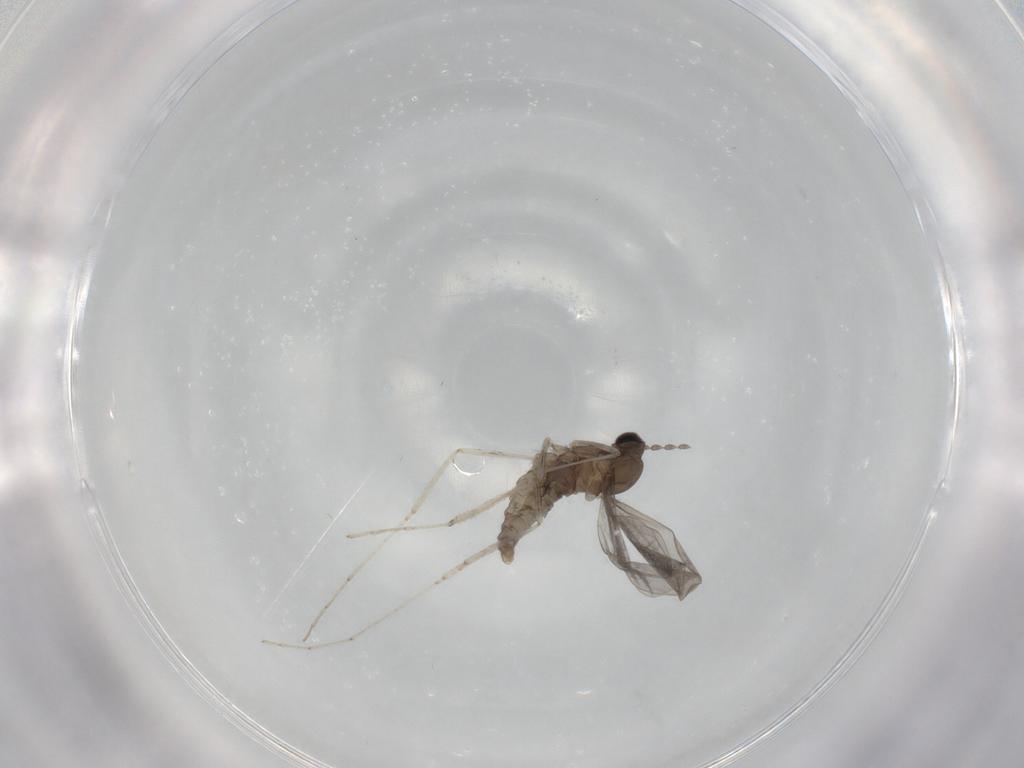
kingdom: Animalia
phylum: Arthropoda
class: Insecta
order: Diptera
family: Cecidomyiidae
